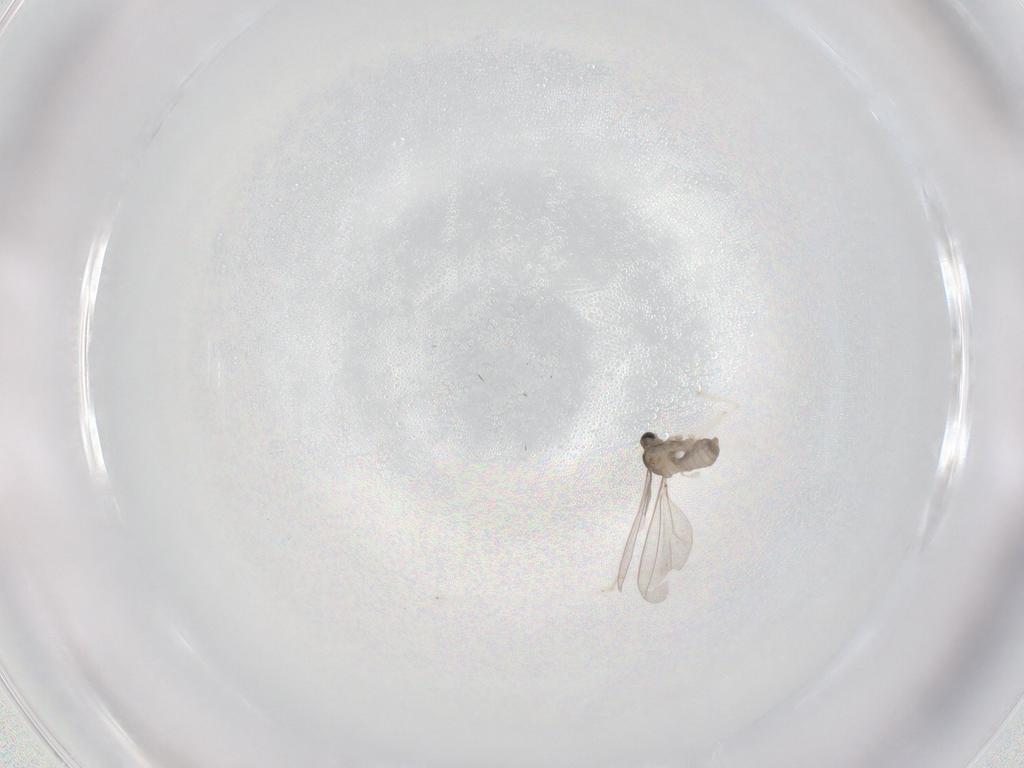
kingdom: Animalia
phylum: Arthropoda
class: Insecta
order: Diptera
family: Cecidomyiidae
